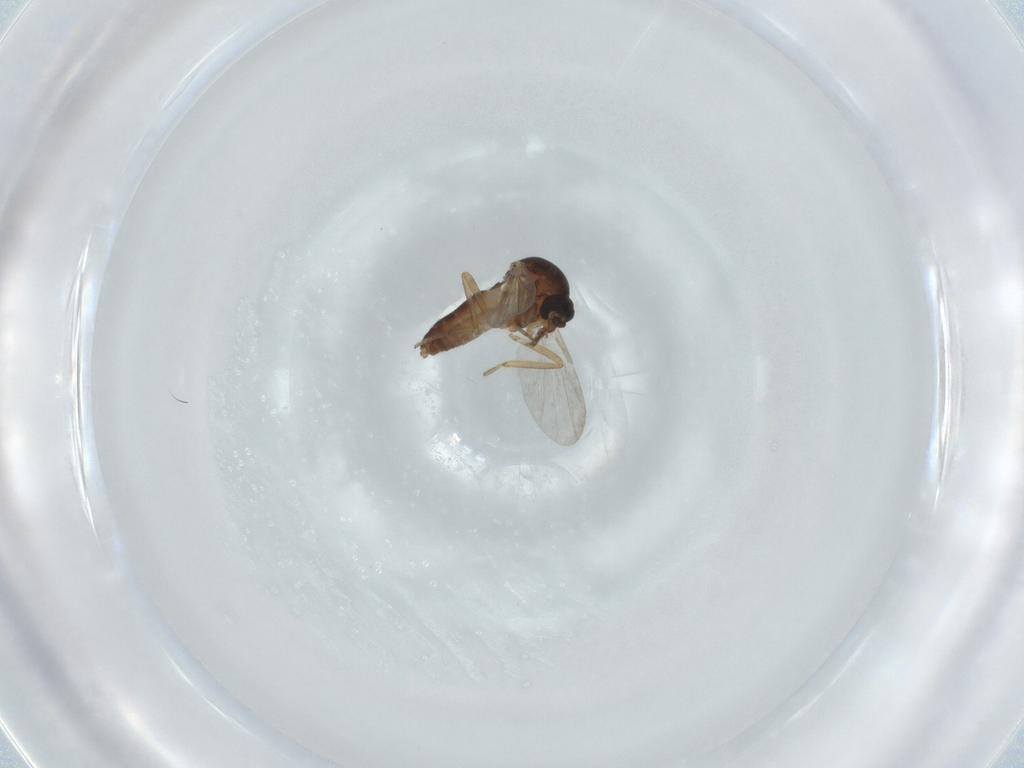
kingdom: Animalia
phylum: Arthropoda
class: Insecta
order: Diptera
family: Ceratopogonidae
